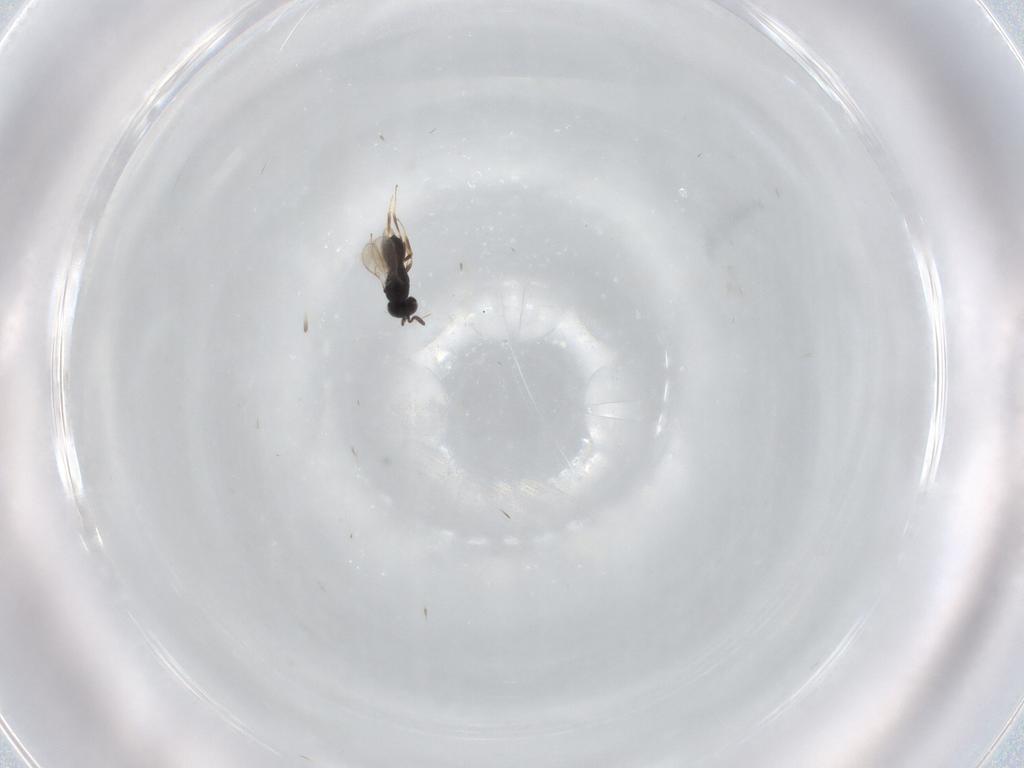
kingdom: Animalia
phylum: Arthropoda
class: Insecta
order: Hymenoptera
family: Scelionidae
